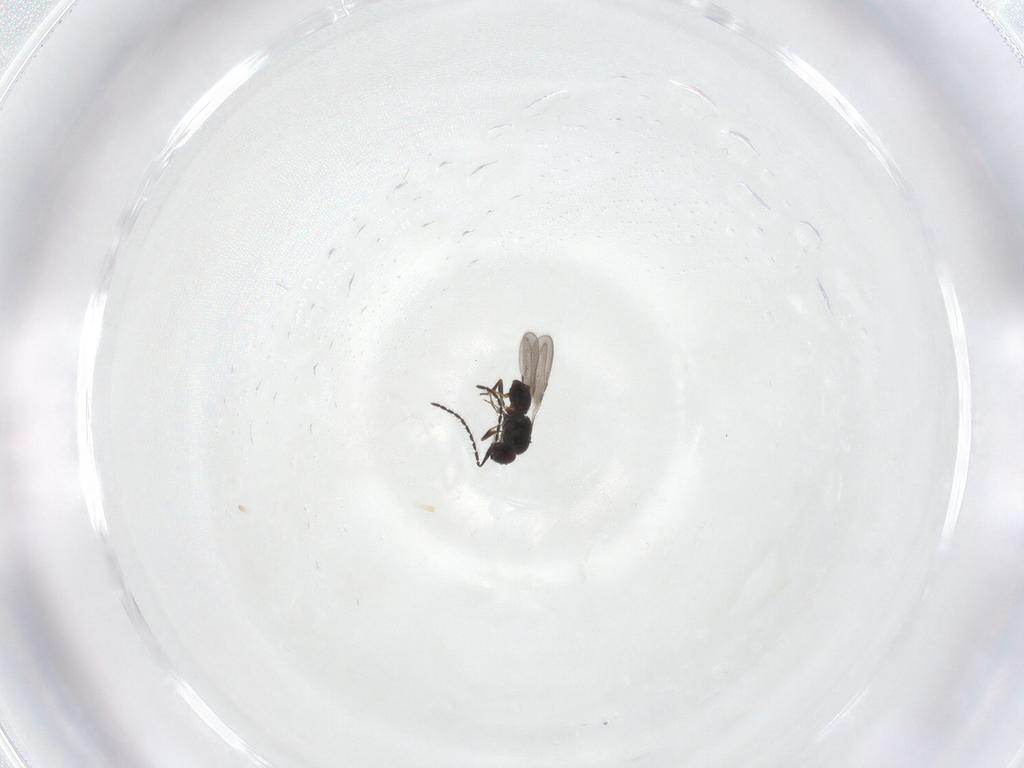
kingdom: Animalia
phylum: Arthropoda
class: Insecta
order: Hymenoptera
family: Ceraphronidae
